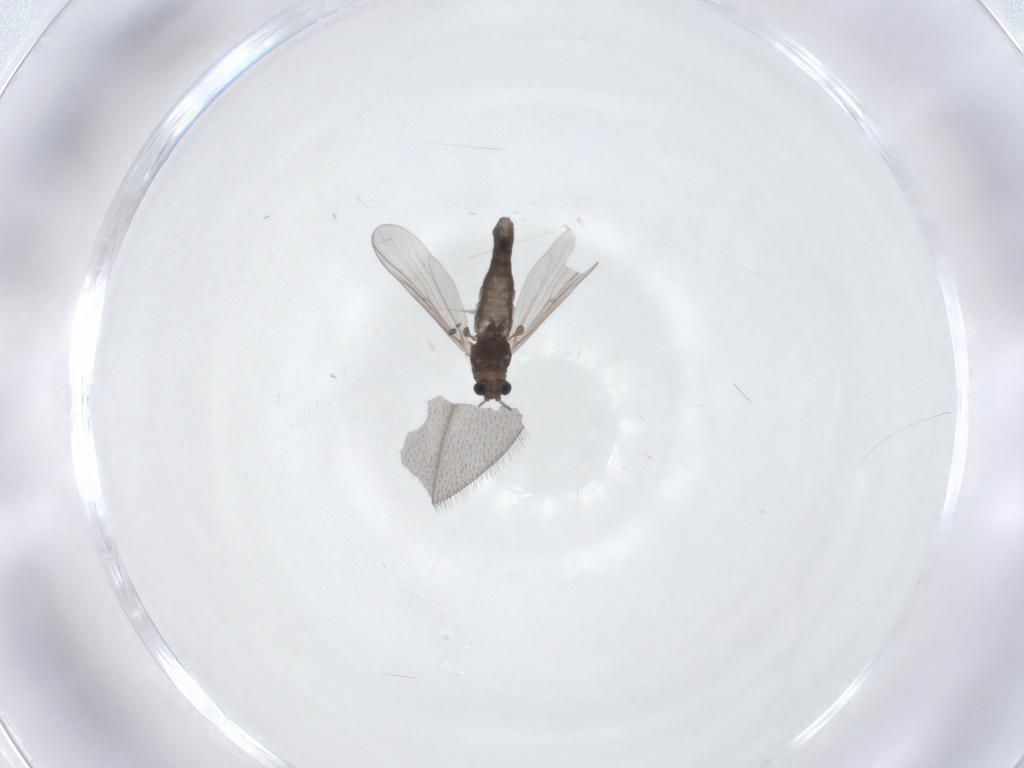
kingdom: Animalia
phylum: Arthropoda
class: Insecta
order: Diptera
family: Chironomidae
